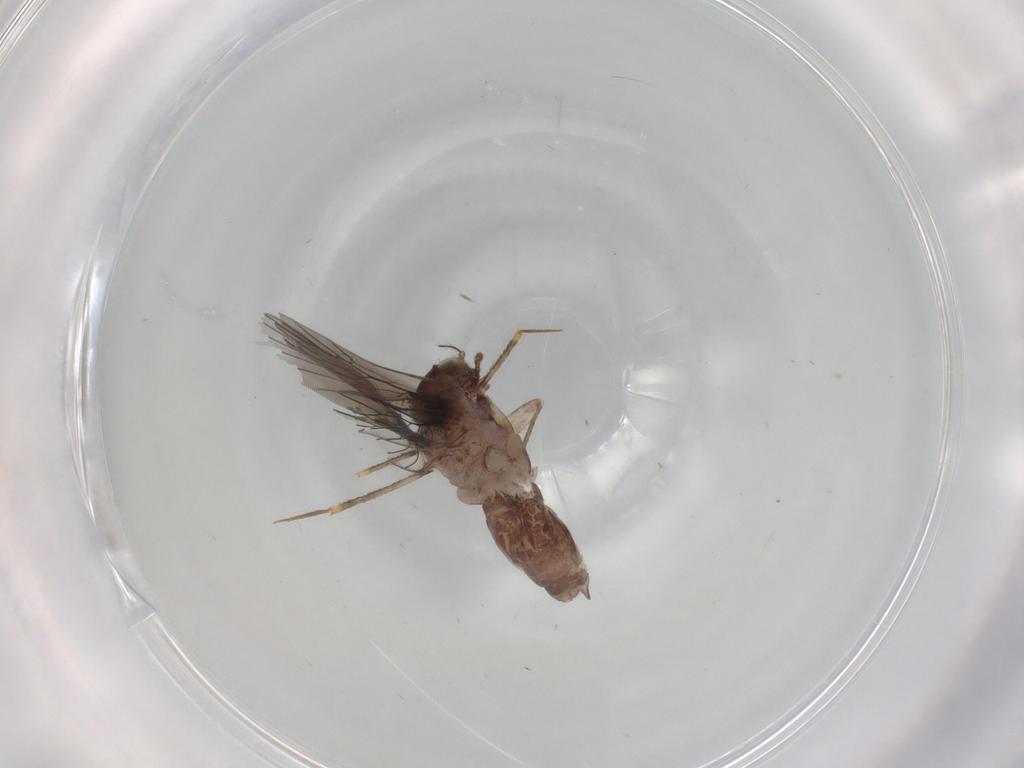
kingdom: Animalia
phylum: Arthropoda
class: Insecta
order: Psocodea
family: Lepidopsocidae
